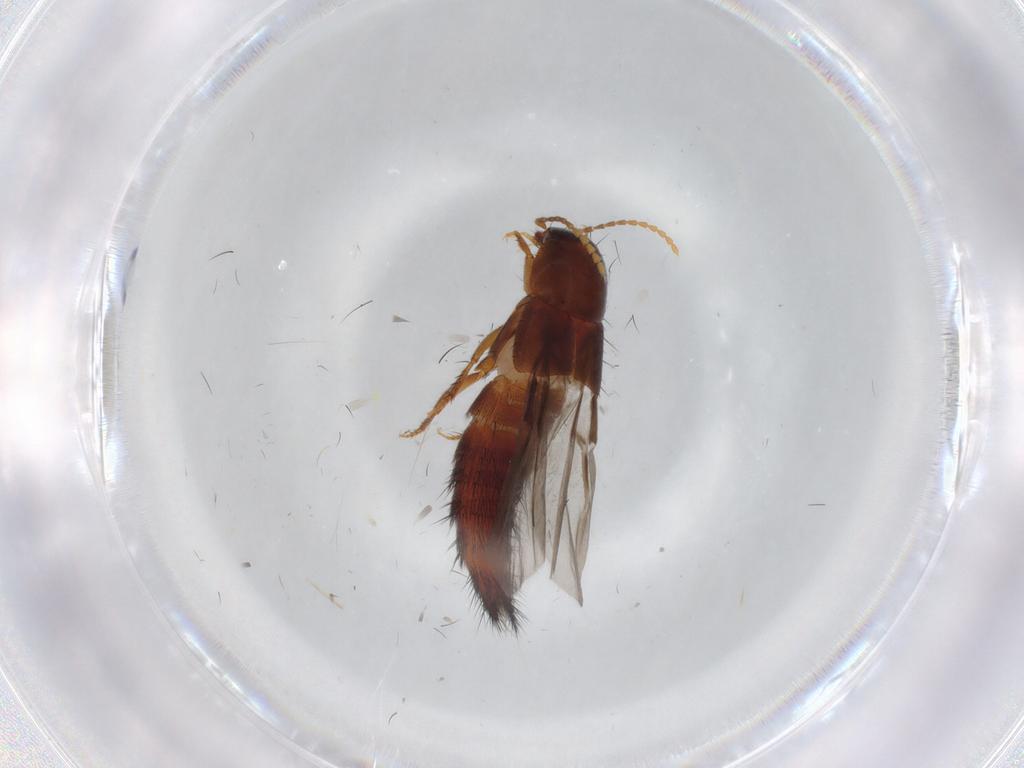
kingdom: Animalia
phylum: Arthropoda
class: Insecta
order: Coleoptera
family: Staphylinidae
